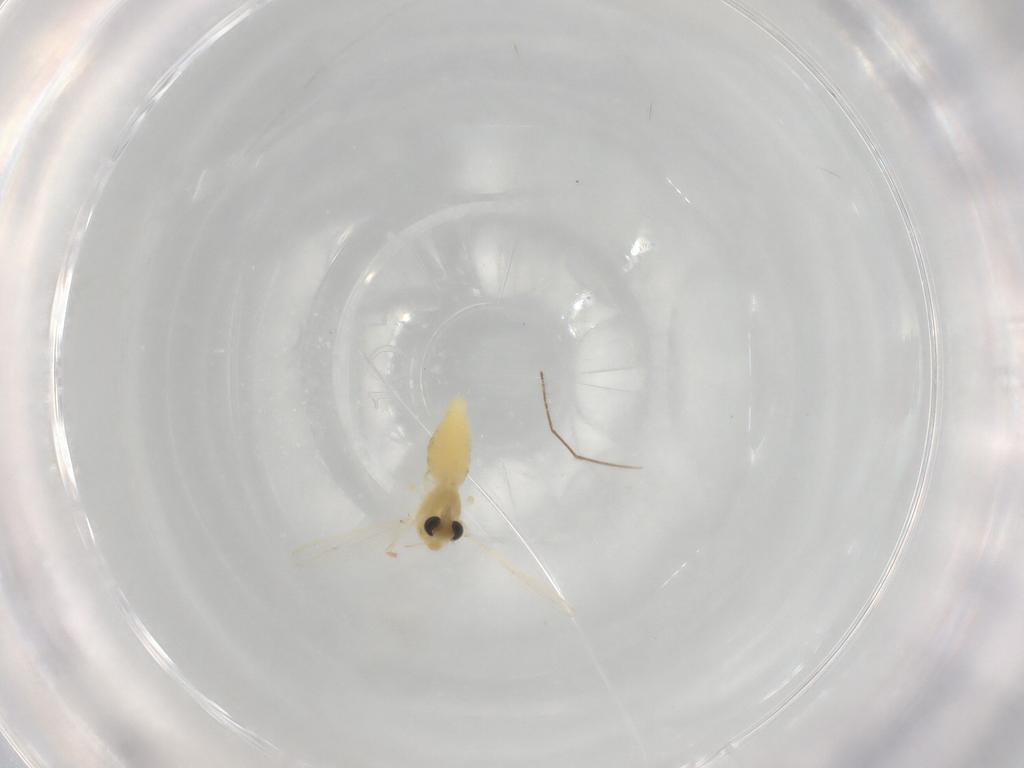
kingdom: Animalia
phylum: Arthropoda
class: Insecta
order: Diptera
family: Chironomidae
